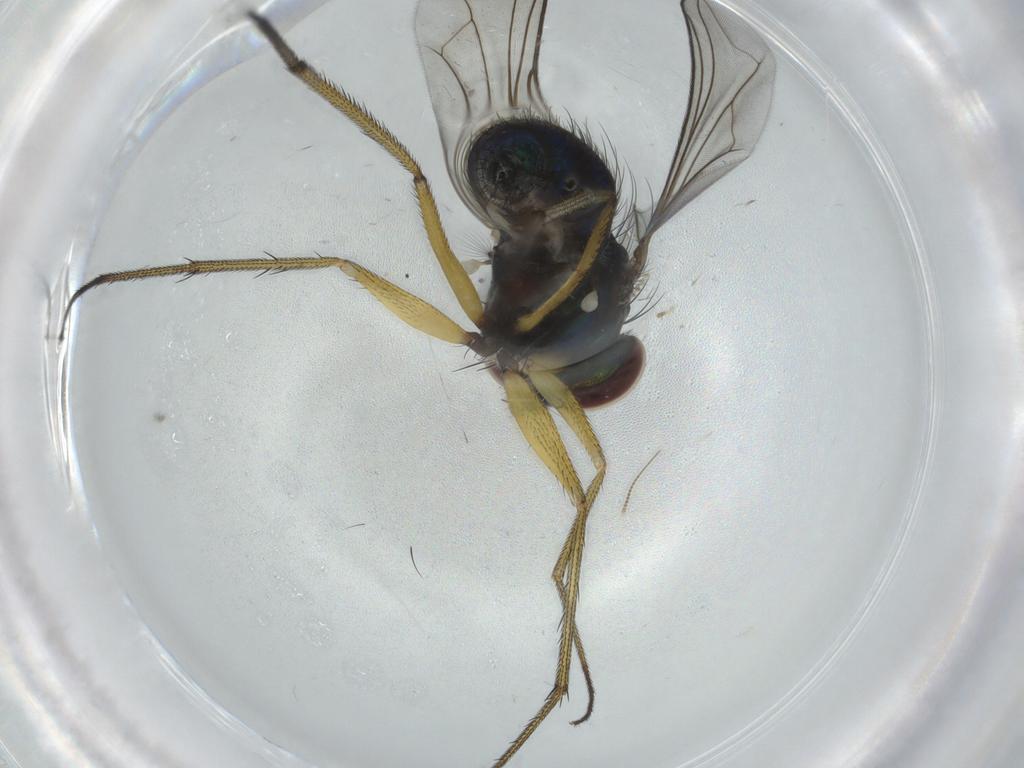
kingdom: Animalia
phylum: Arthropoda
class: Insecta
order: Diptera
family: Dolichopodidae
